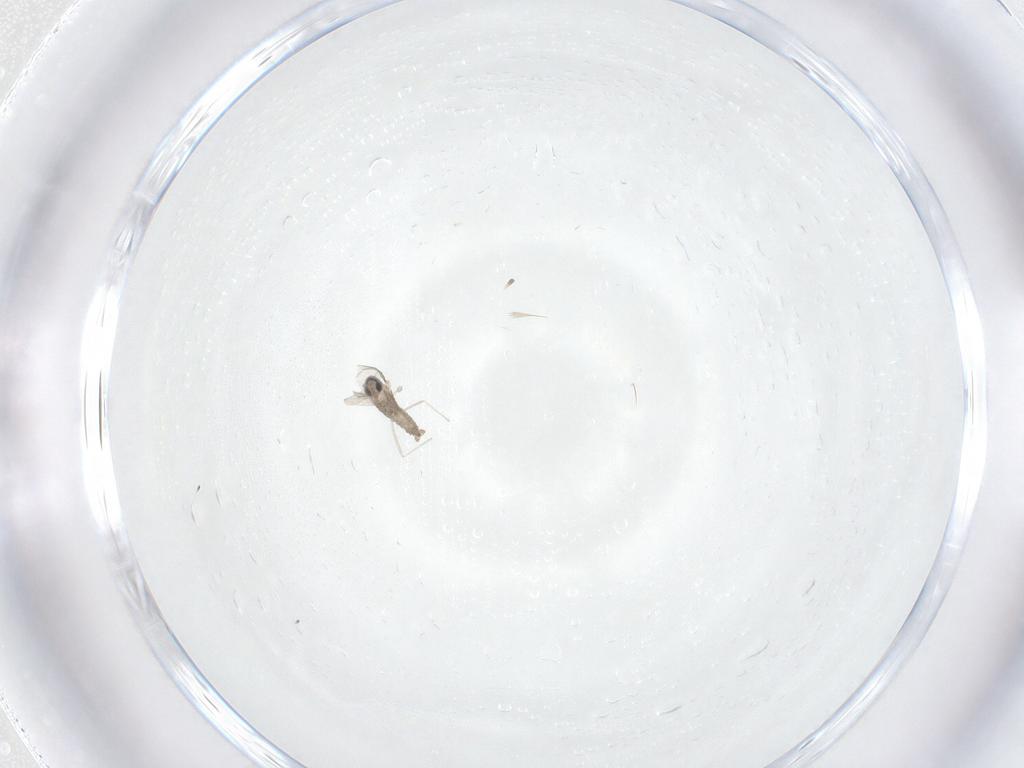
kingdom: Animalia
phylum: Arthropoda
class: Insecta
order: Diptera
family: Cecidomyiidae
